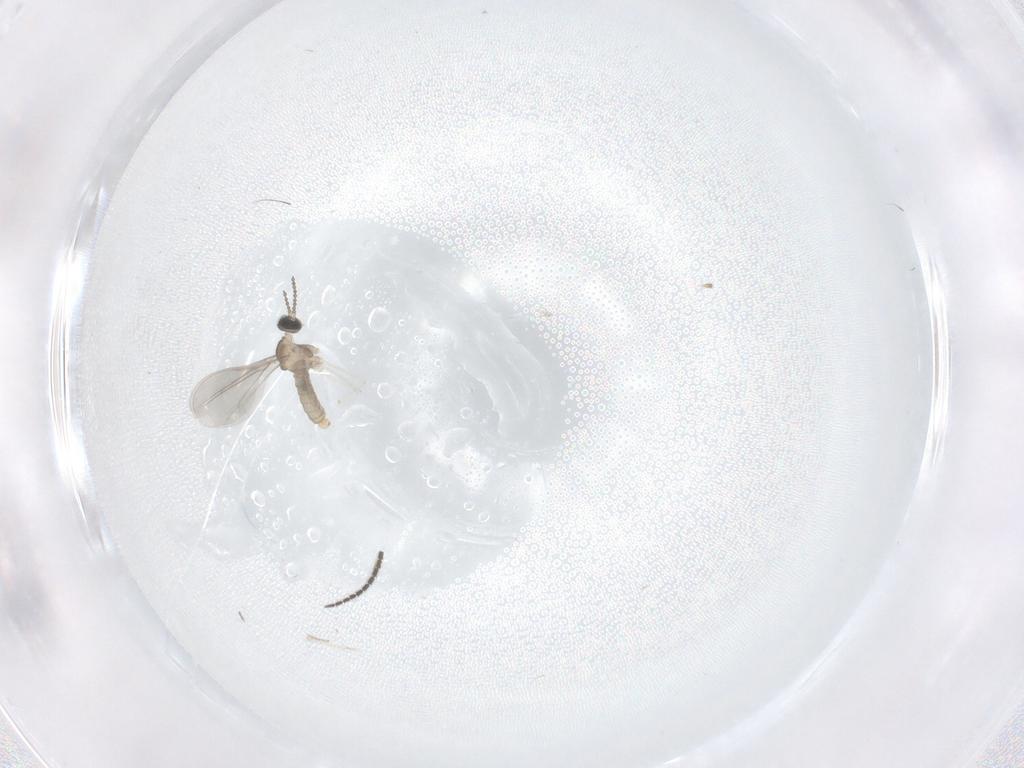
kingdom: Animalia
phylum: Arthropoda
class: Insecta
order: Diptera
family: Cecidomyiidae
